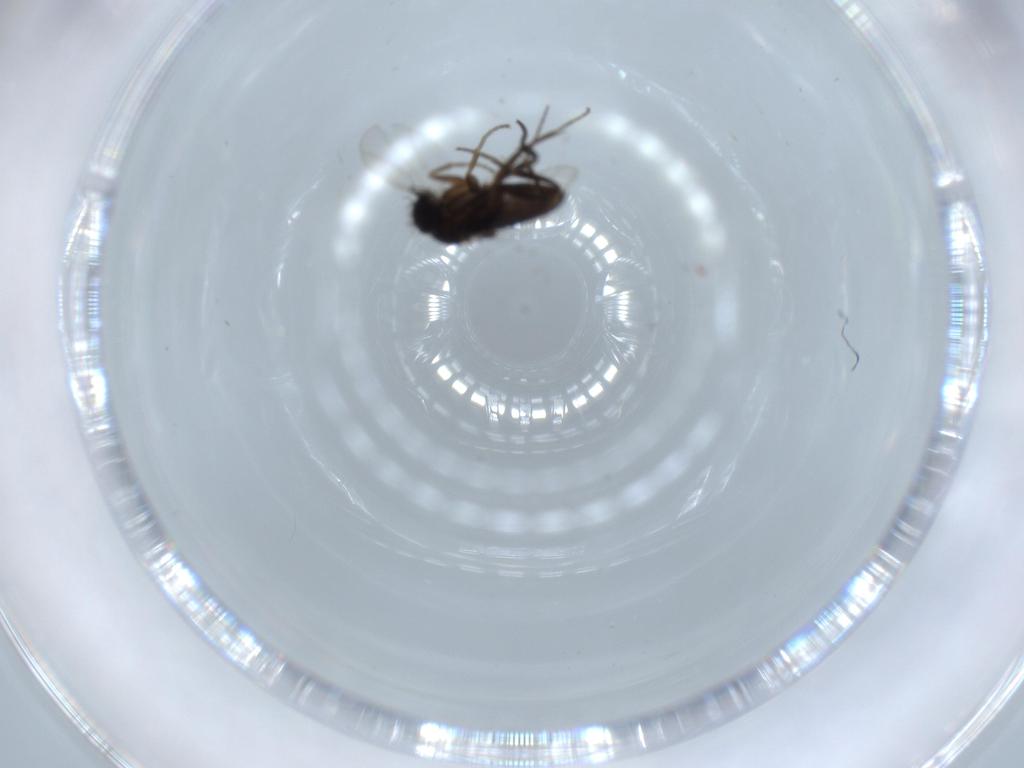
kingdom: Animalia
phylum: Arthropoda
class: Insecta
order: Diptera
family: Phoridae
